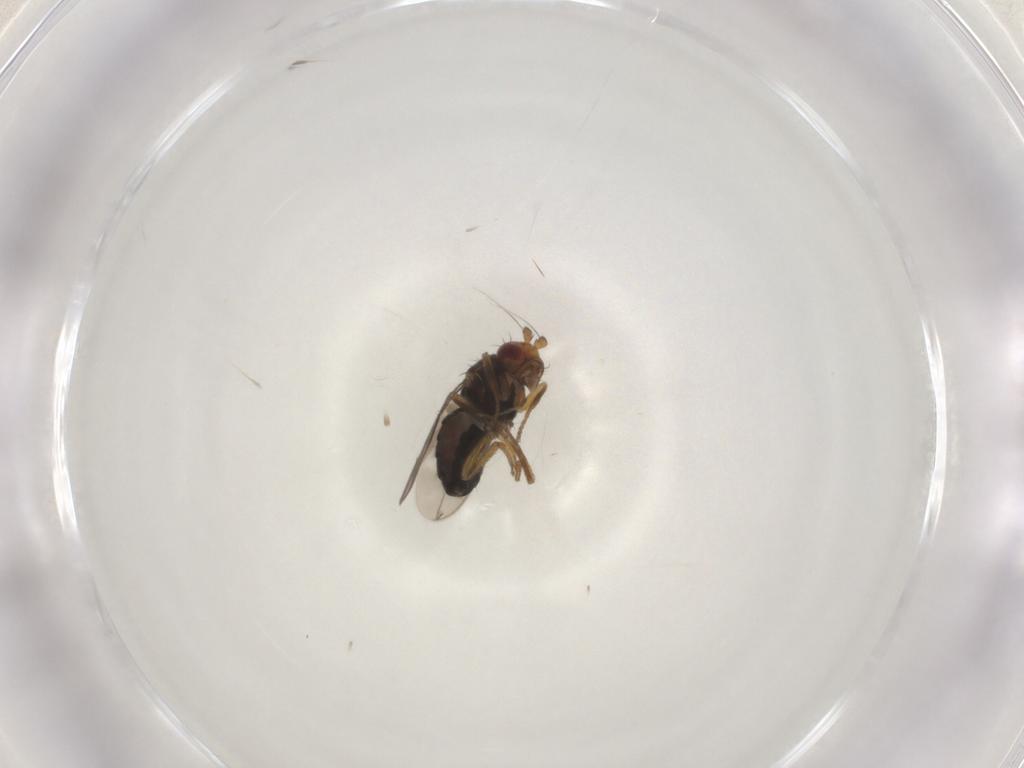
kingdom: Animalia
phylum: Arthropoda
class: Insecta
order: Diptera
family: Sphaeroceridae
